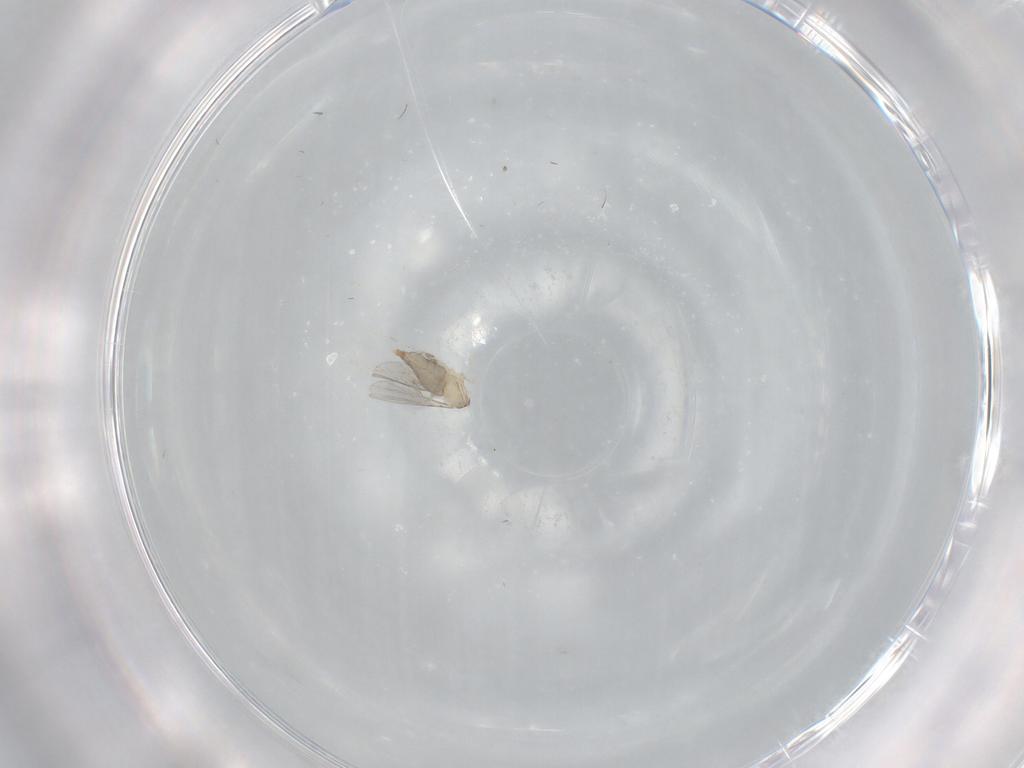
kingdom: Animalia
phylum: Arthropoda
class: Insecta
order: Diptera
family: Cecidomyiidae
